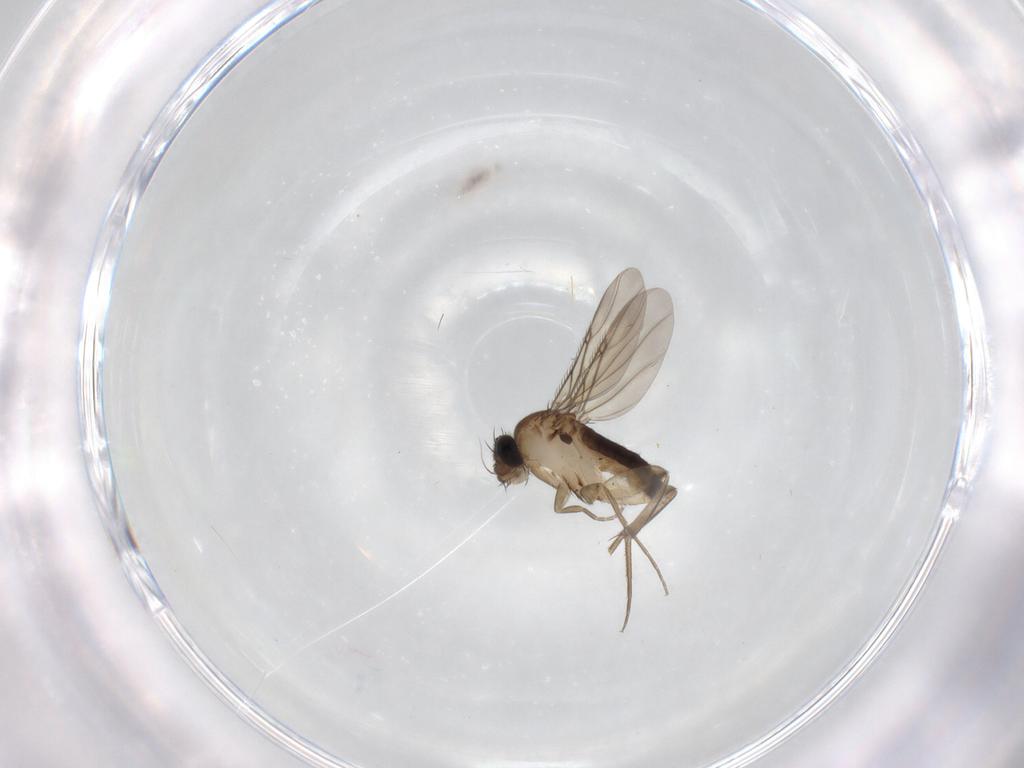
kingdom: Animalia
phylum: Arthropoda
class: Insecta
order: Diptera
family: Phoridae
